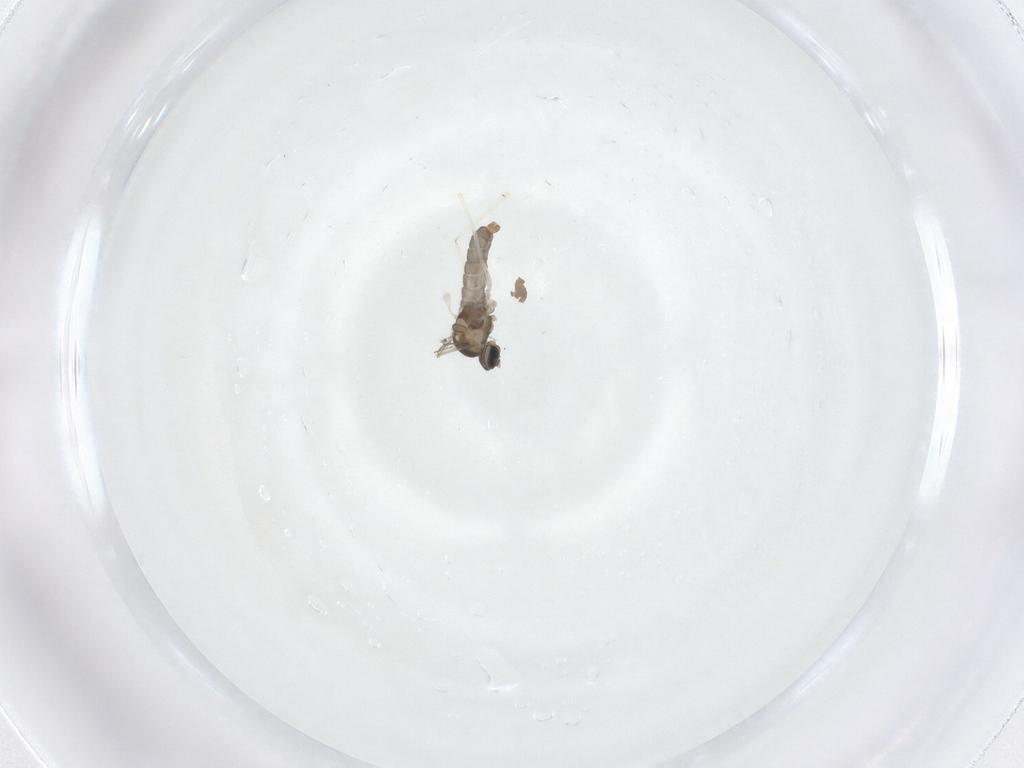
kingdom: Animalia
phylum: Arthropoda
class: Insecta
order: Diptera
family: Cecidomyiidae
